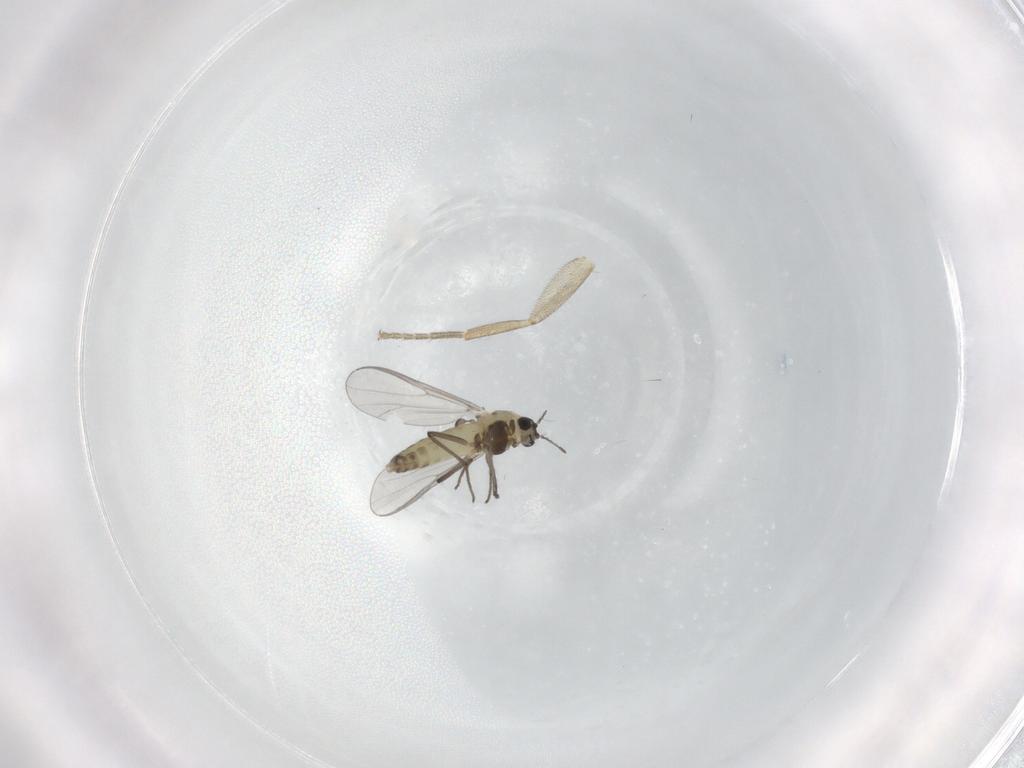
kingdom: Animalia
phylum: Arthropoda
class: Insecta
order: Diptera
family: Chironomidae
